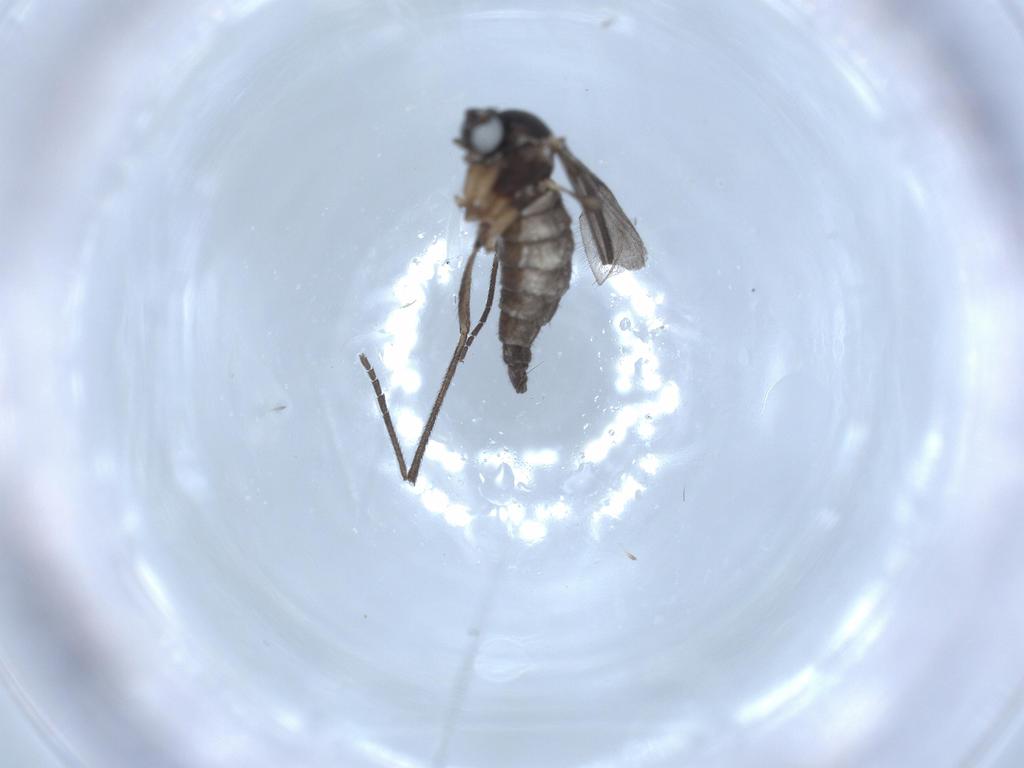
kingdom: Animalia
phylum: Arthropoda
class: Insecta
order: Diptera
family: Sciaridae
